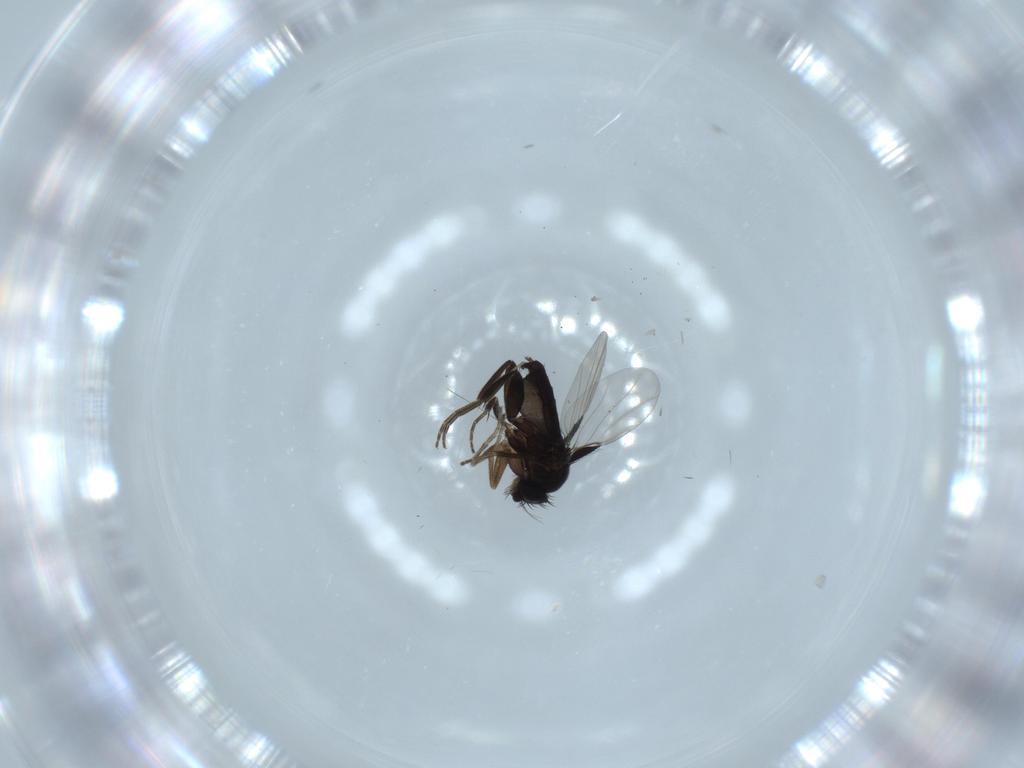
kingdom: Animalia
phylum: Arthropoda
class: Insecta
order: Diptera
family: Phoridae
